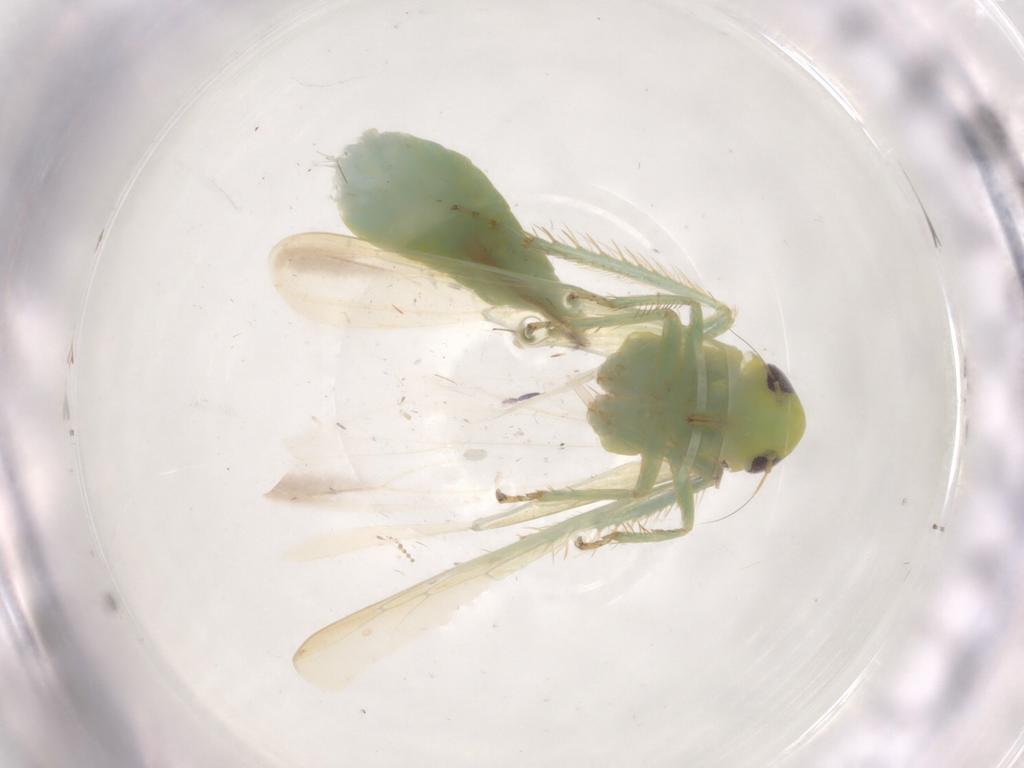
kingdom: Animalia
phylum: Arthropoda
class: Insecta
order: Hemiptera
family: Cicadellidae
